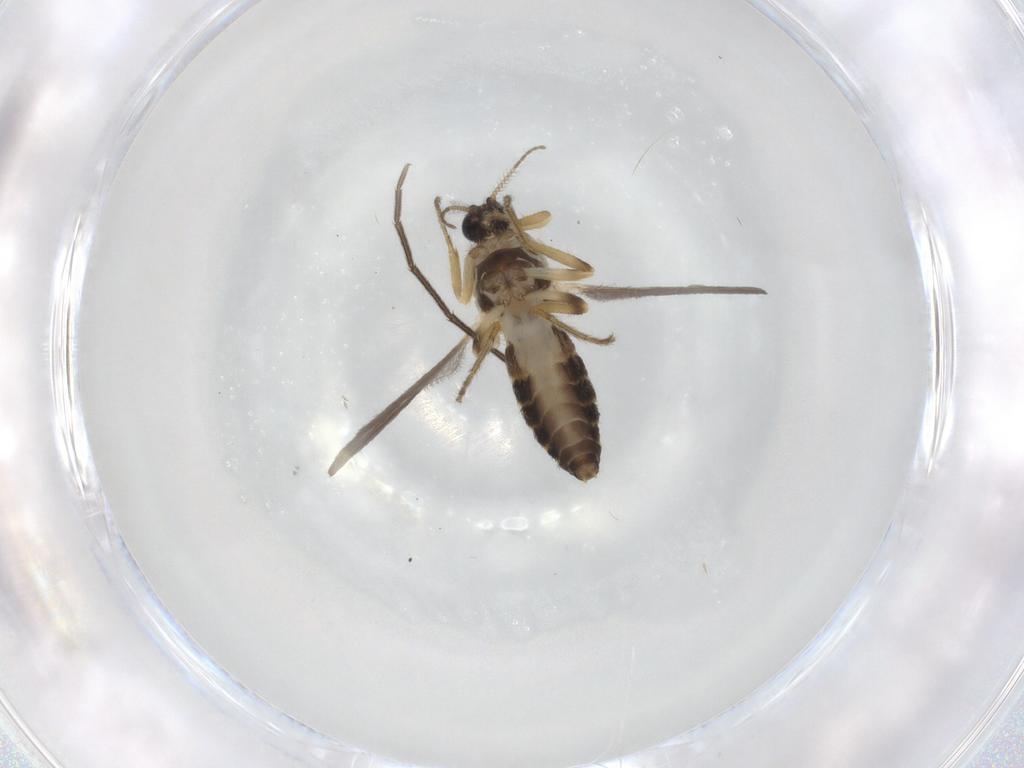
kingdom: Animalia
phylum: Arthropoda
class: Insecta
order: Diptera
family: Ceratopogonidae
